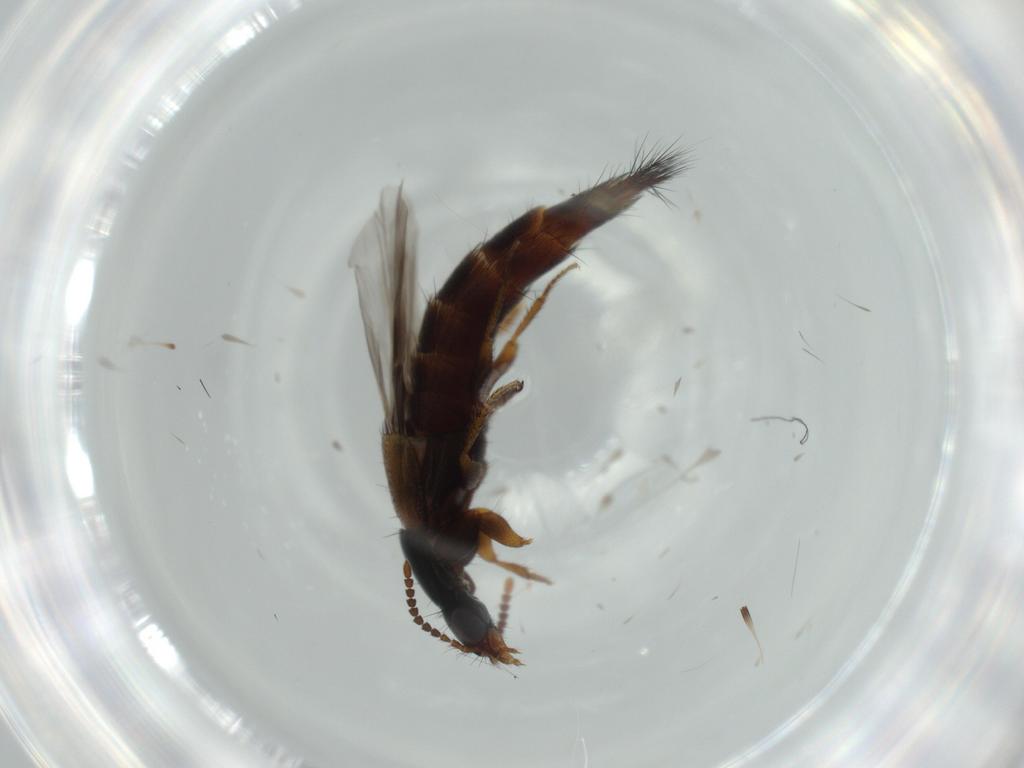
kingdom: Animalia
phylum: Arthropoda
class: Insecta
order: Coleoptera
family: Staphylinidae
